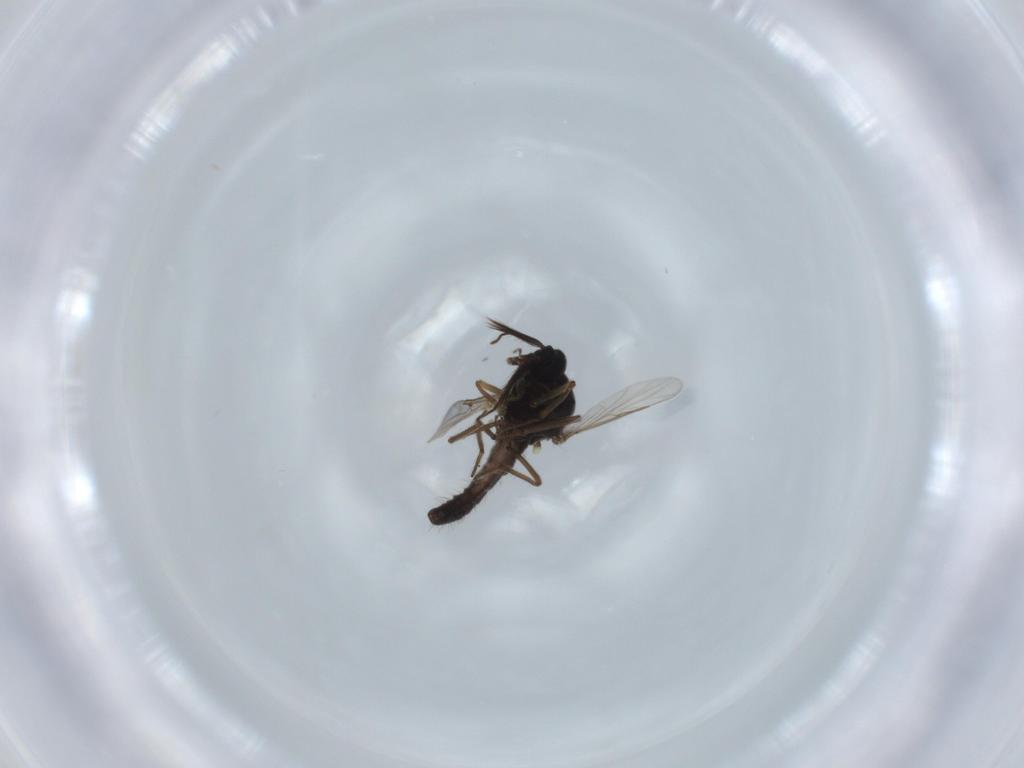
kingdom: Animalia
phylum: Arthropoda
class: Insecta
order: Diptera
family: Ceratopogonidae
